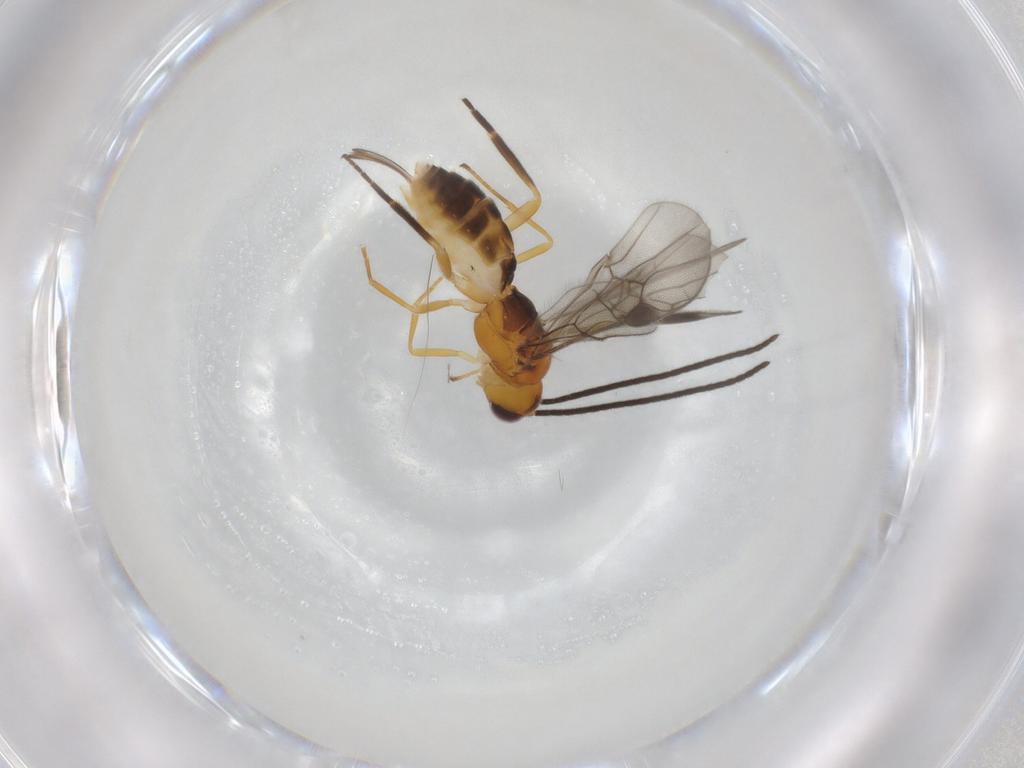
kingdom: Animalia
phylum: Arthropoda
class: Insecta
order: Hymenoptera
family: Braconidae
